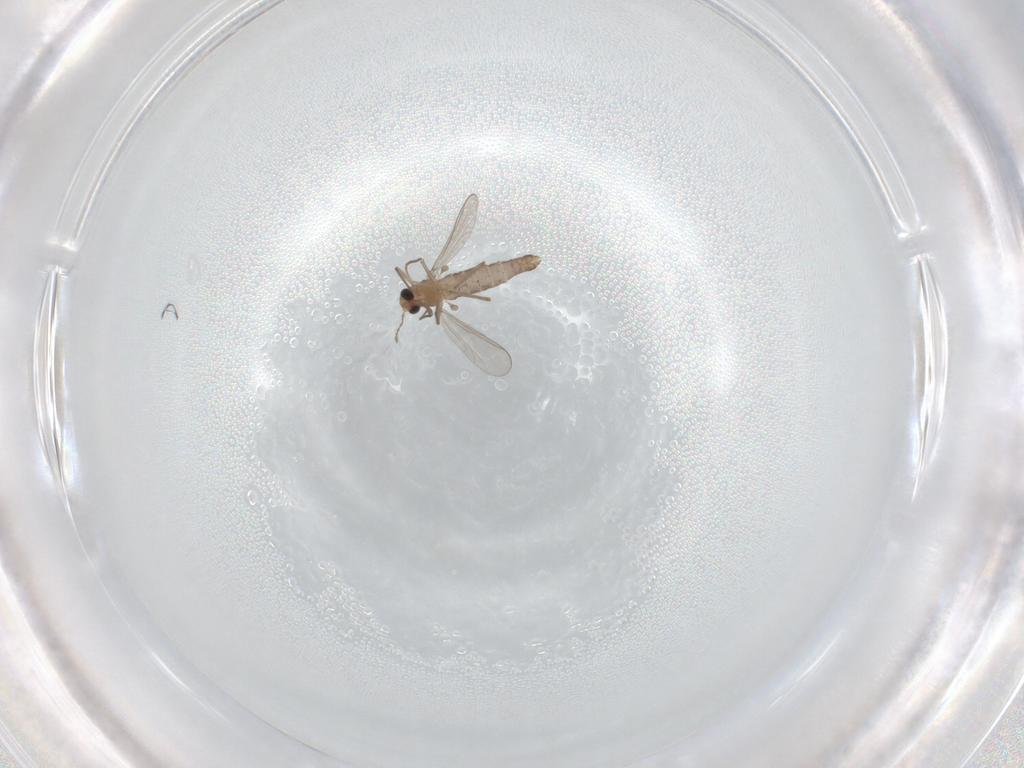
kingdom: Animalia
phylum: Arthropoda
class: Insecta
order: Diptera
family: Chironomidae
